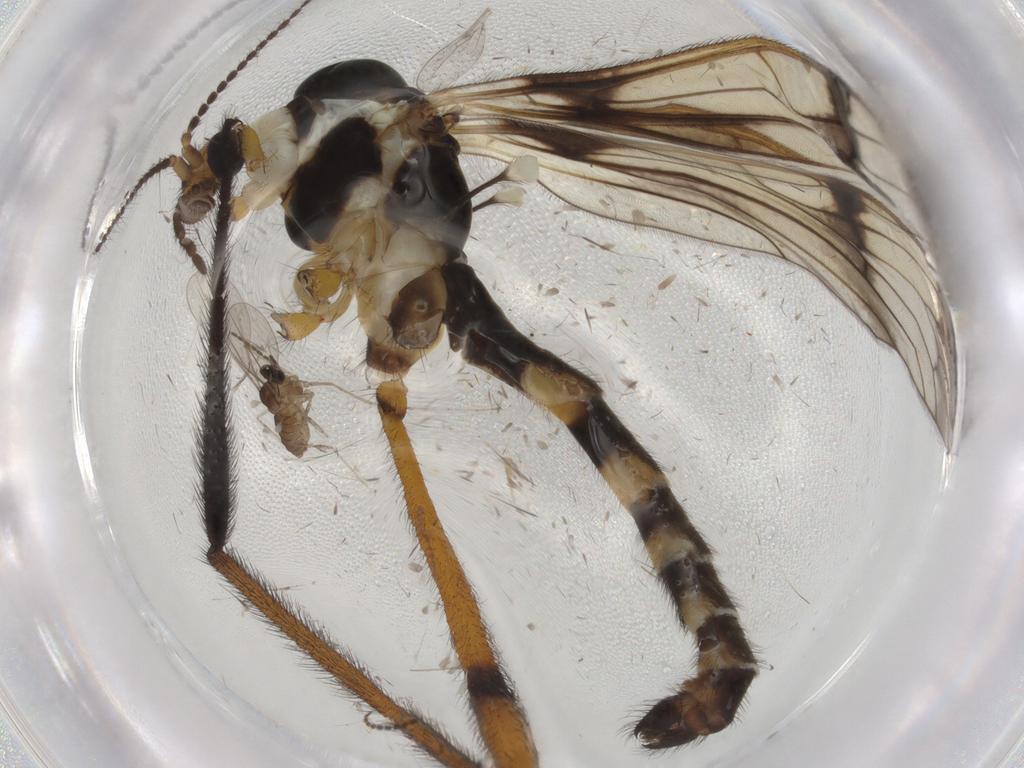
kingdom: Animalia
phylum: Arthropoda
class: Insecta
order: Diptera
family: Limoniidae
